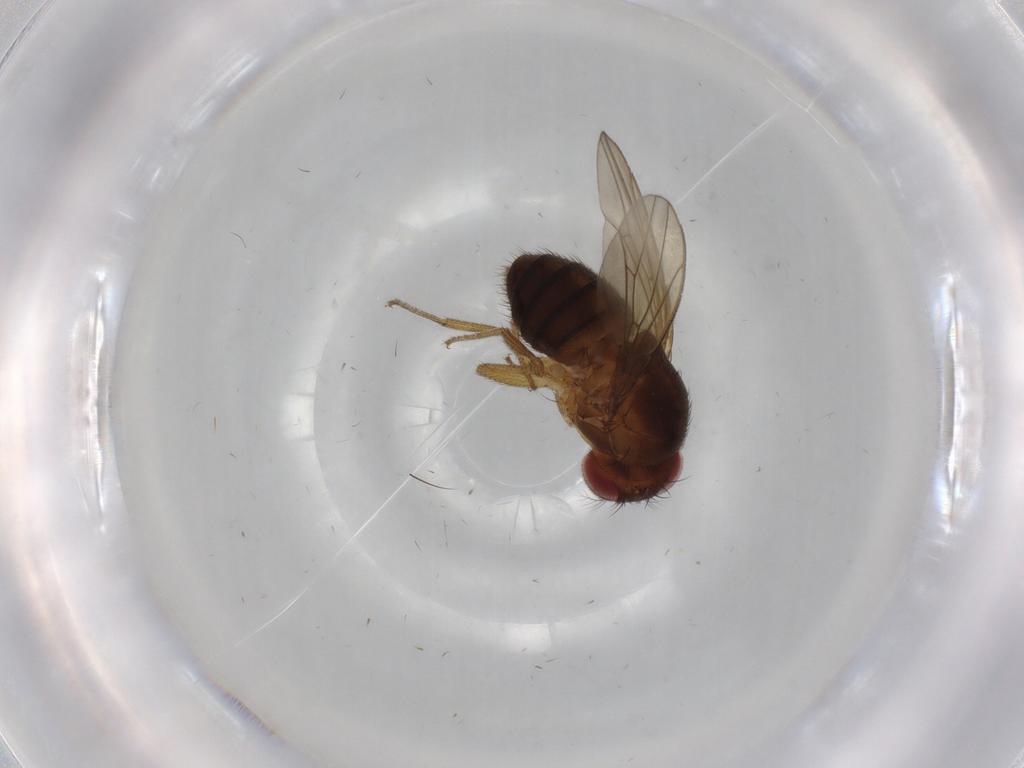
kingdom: Animalia
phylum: Arthropoda
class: Insecta
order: Diptera
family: Drosophilidae
